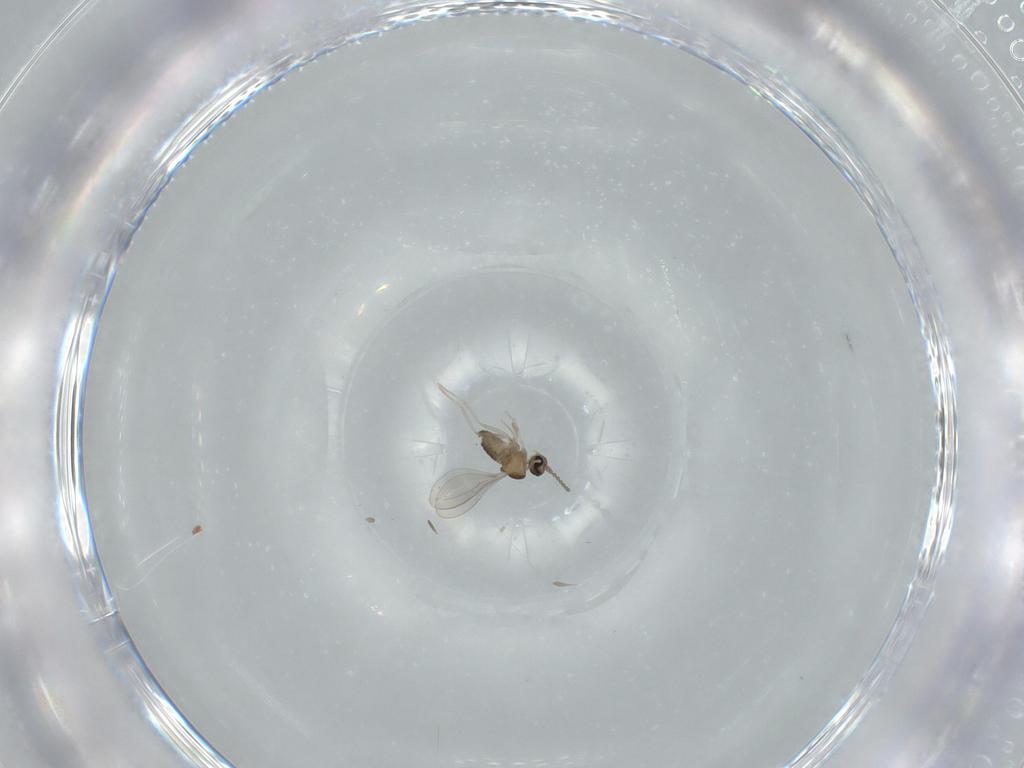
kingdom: Animalia
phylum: Arthropoda
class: Insecta
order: Diptera
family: Cecidomyiidae
